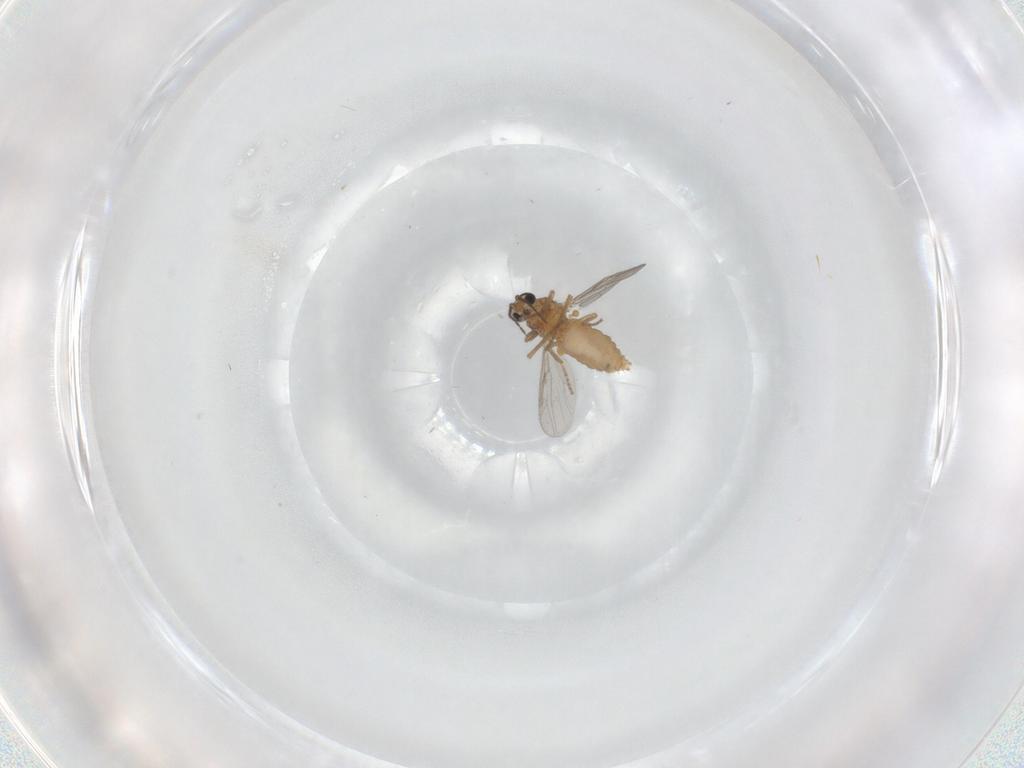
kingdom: Animalia
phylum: Arthropoda
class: Insecta
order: Diptera
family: Ceratopogonidae
